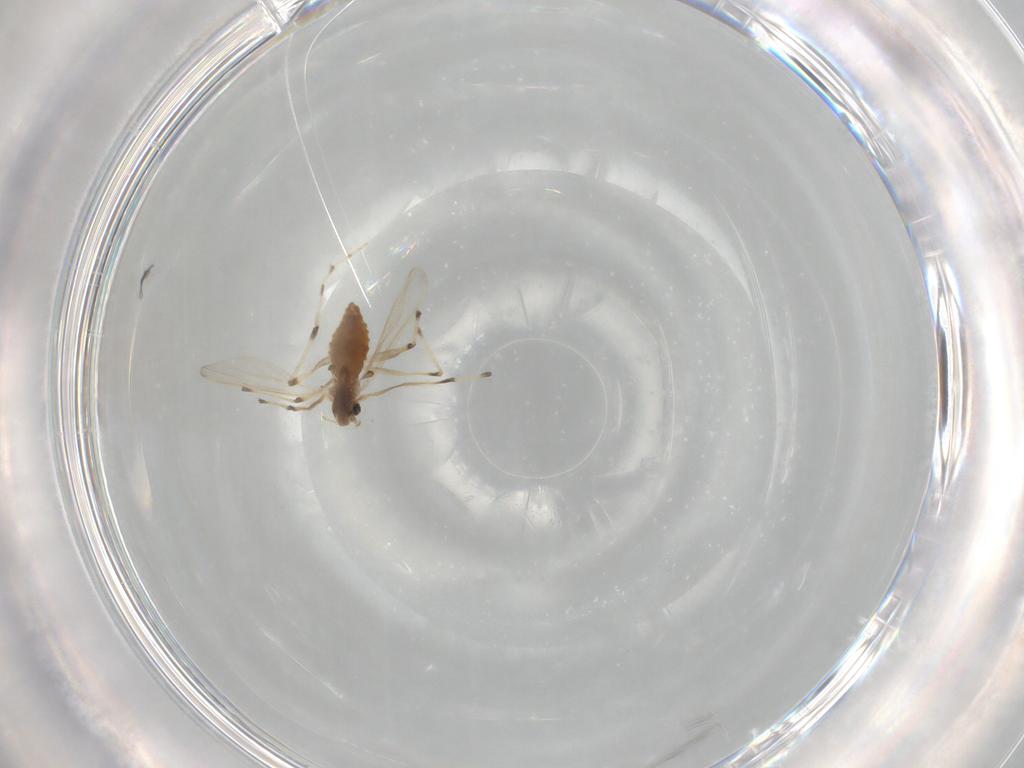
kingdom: Animalia
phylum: Arthropoda
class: Insecta
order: Diptera
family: Chironomidae
